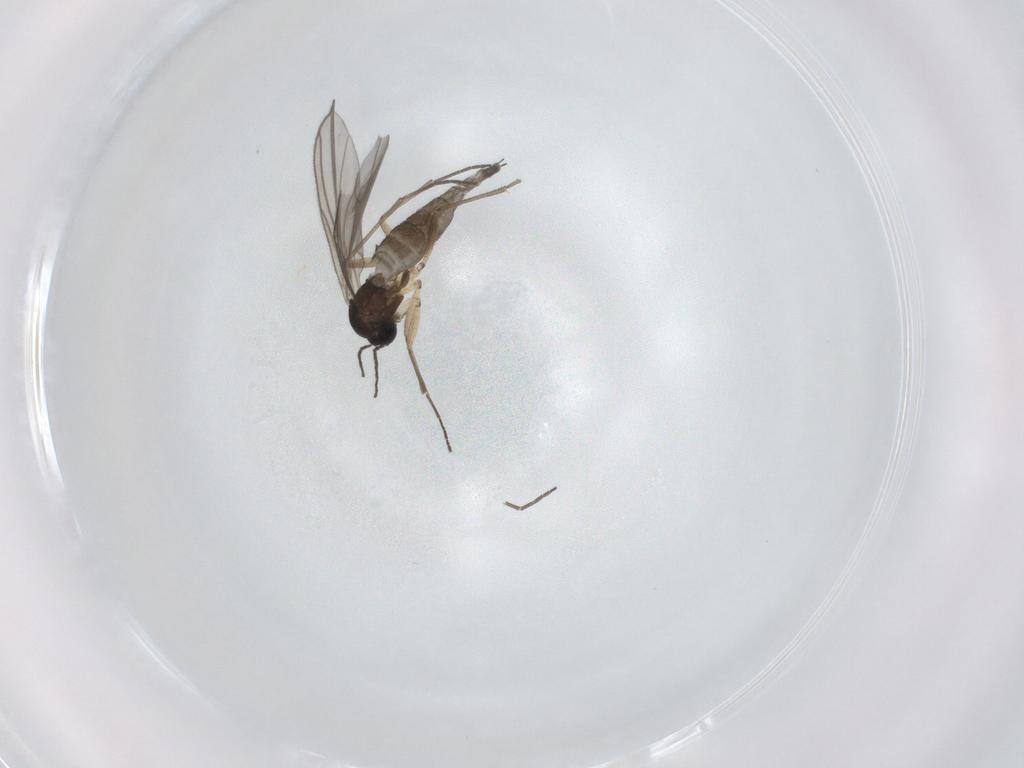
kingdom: Animalia
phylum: Arthropoda
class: Insecta
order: Diptera
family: Sciaridae
